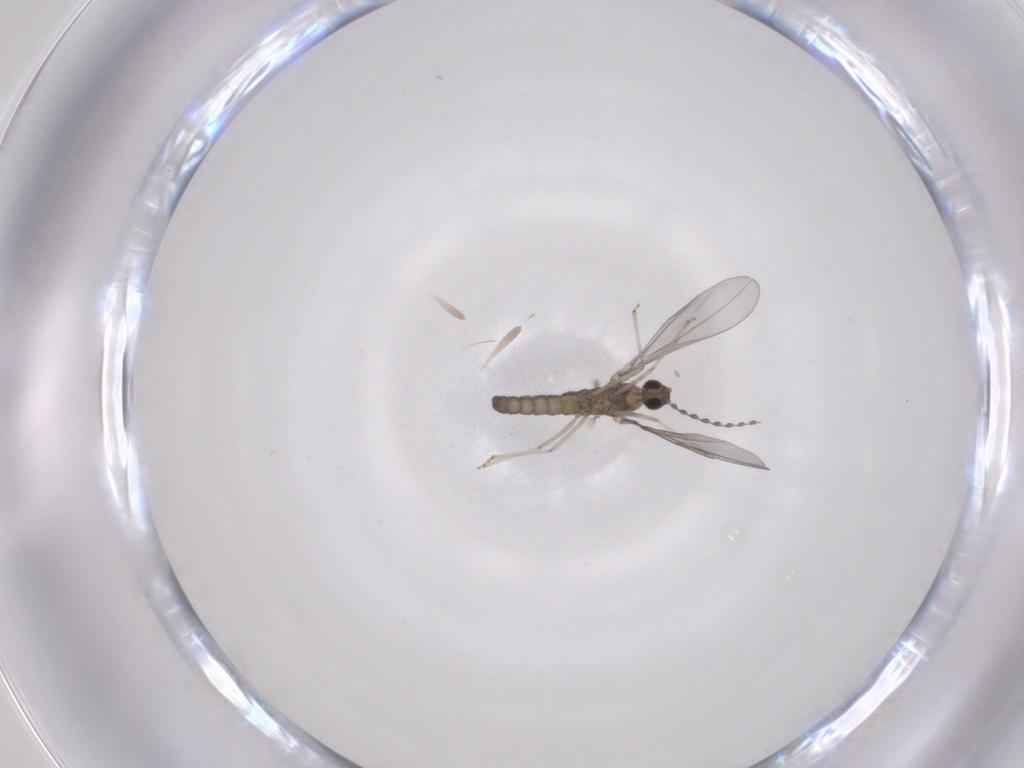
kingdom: Animalia
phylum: Arthropoda
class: Insecta
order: Diptera
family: Cecidomyiidae
